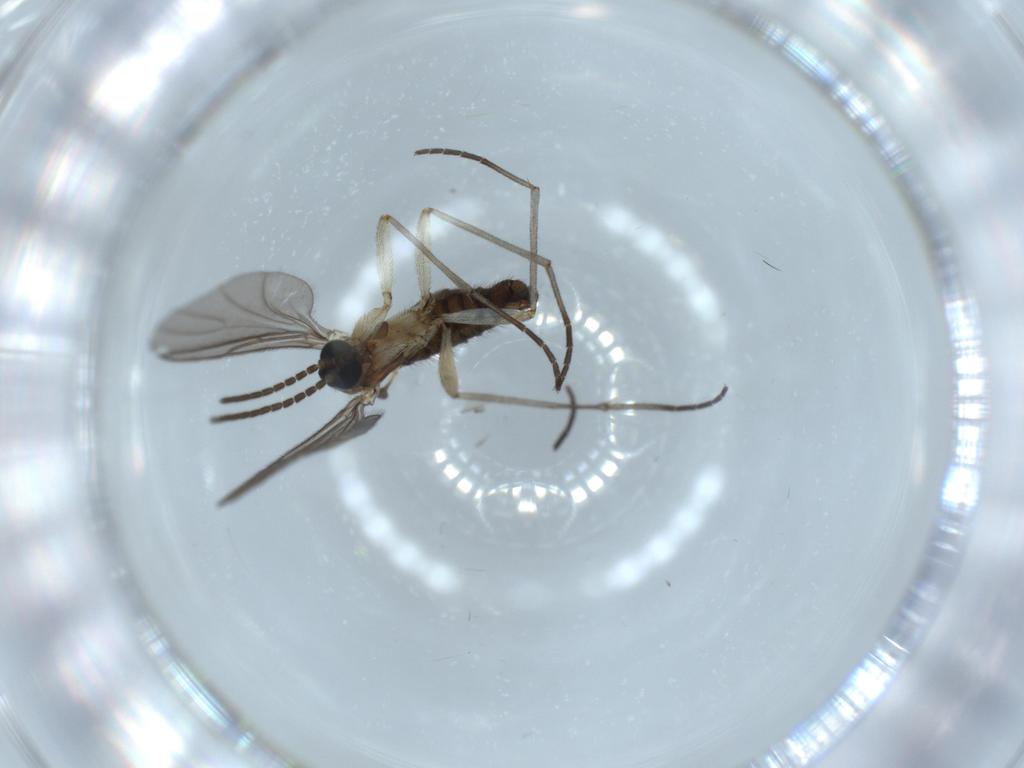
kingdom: Animalia
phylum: Arthropoda
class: Insecta
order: Diptera
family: Sciaridae
